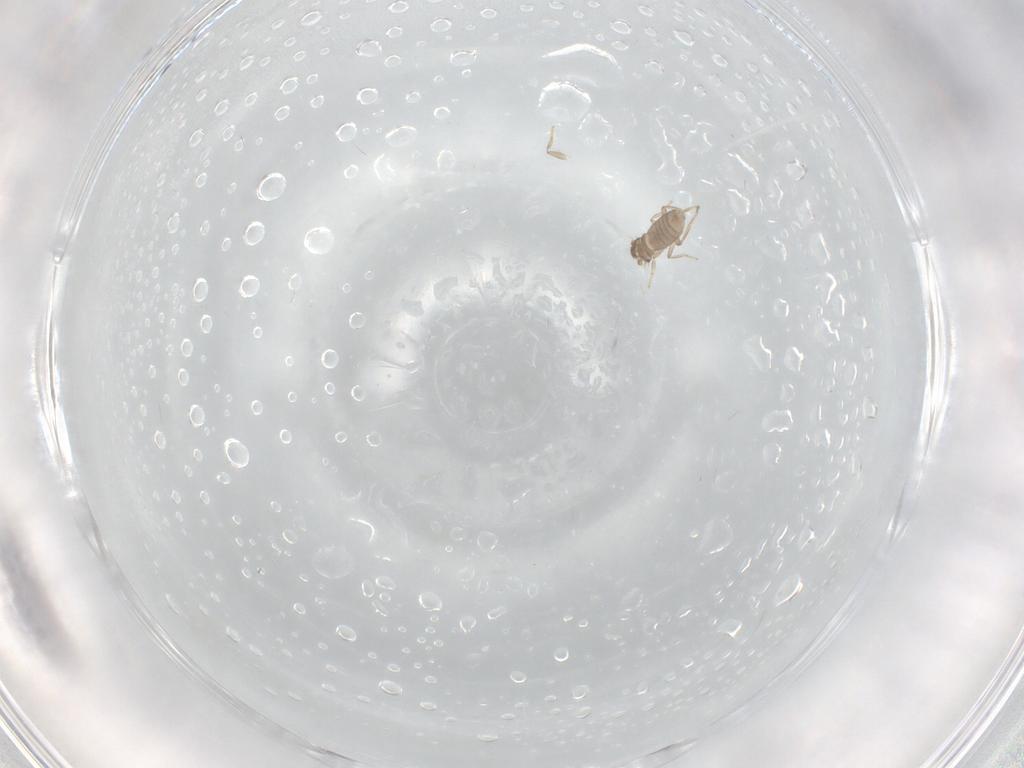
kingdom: Animalia
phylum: Arthropoda
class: Insecta
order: Diptera
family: Cecidomyiidae
